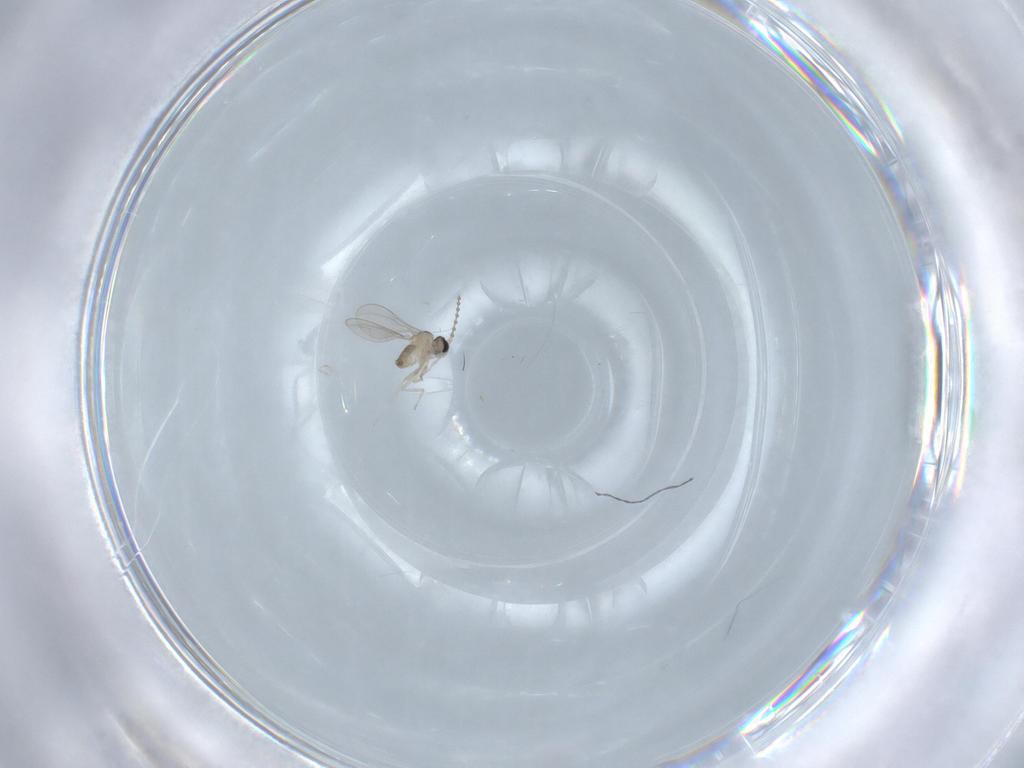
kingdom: Animalia
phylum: Arthropoda
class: Insecta
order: Diptera
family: Cecidomyiidae
